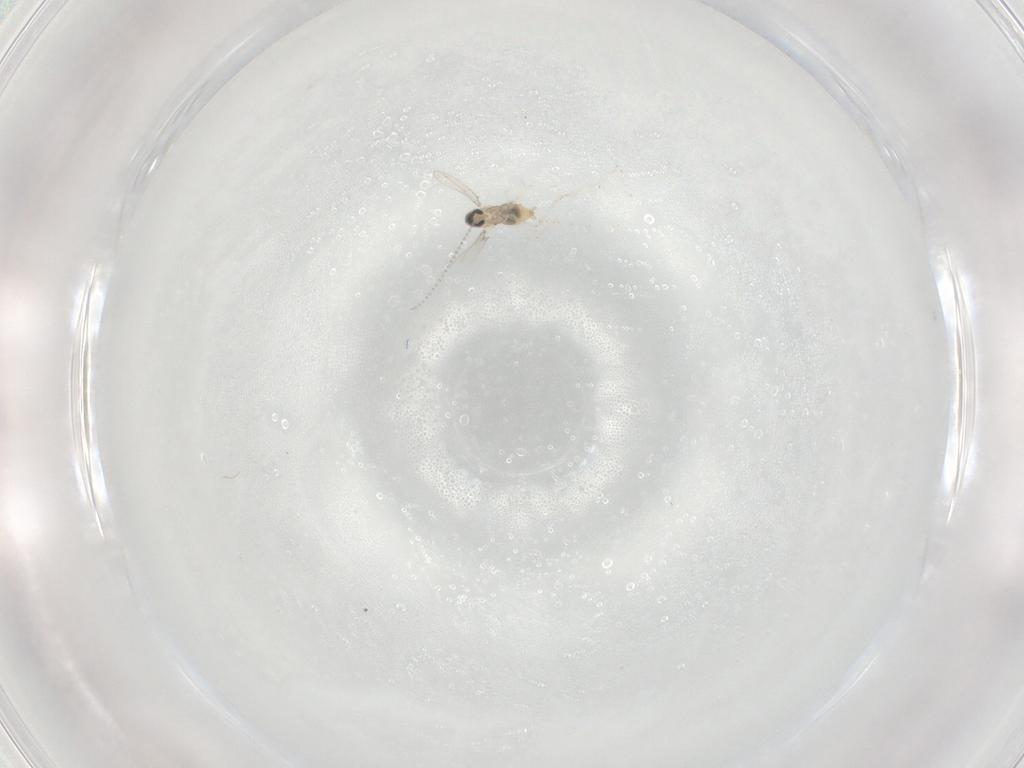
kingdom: Animalia
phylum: Arthropoda
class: Insecta
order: Diptera
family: Cecidomyiidae
